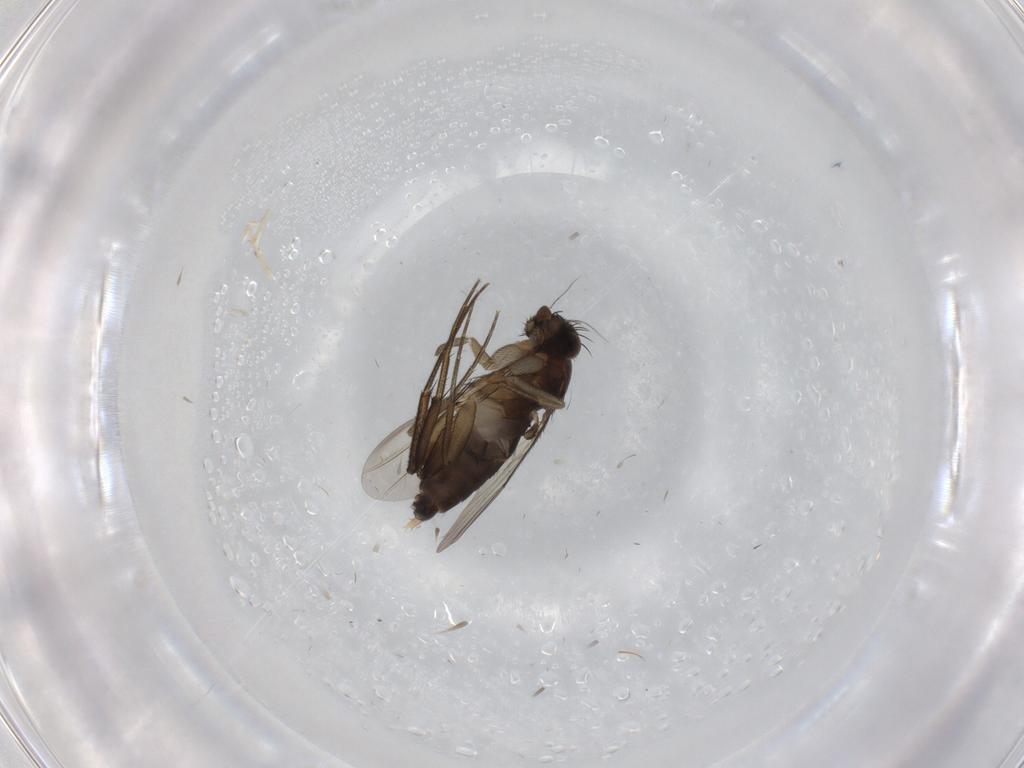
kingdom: Animalia
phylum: Arthropoda
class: Insecta
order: Diptera
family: Phoridae
